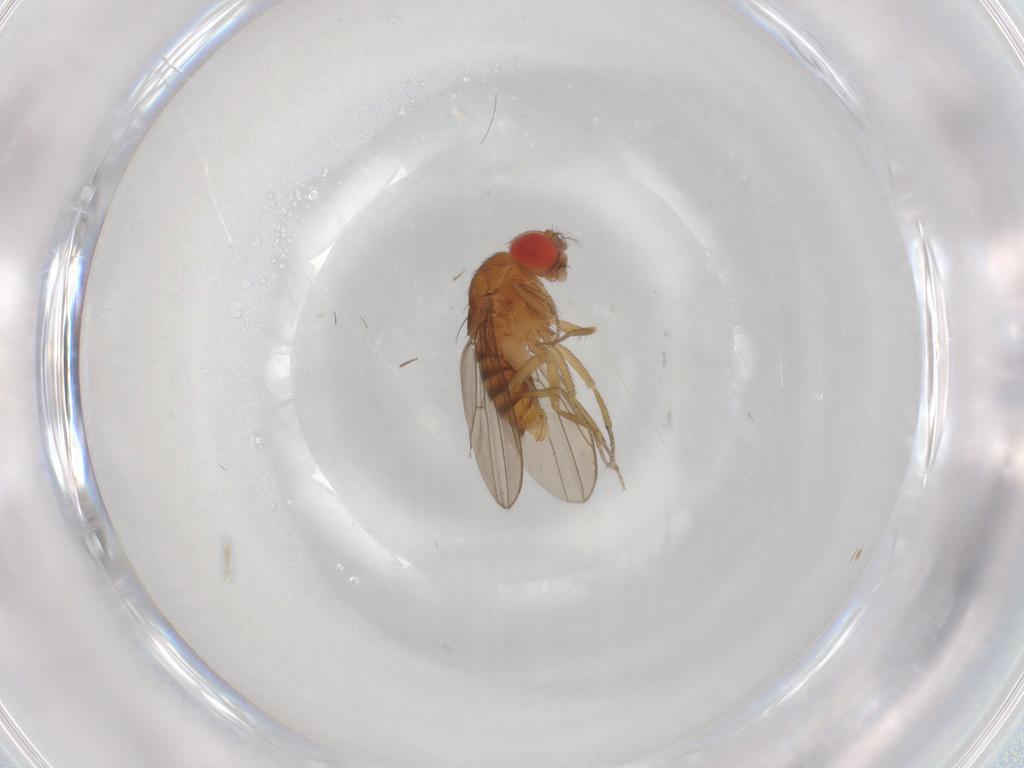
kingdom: Animalia
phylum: Arthropoda
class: Insecta
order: Diptera
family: Drosophilidae
